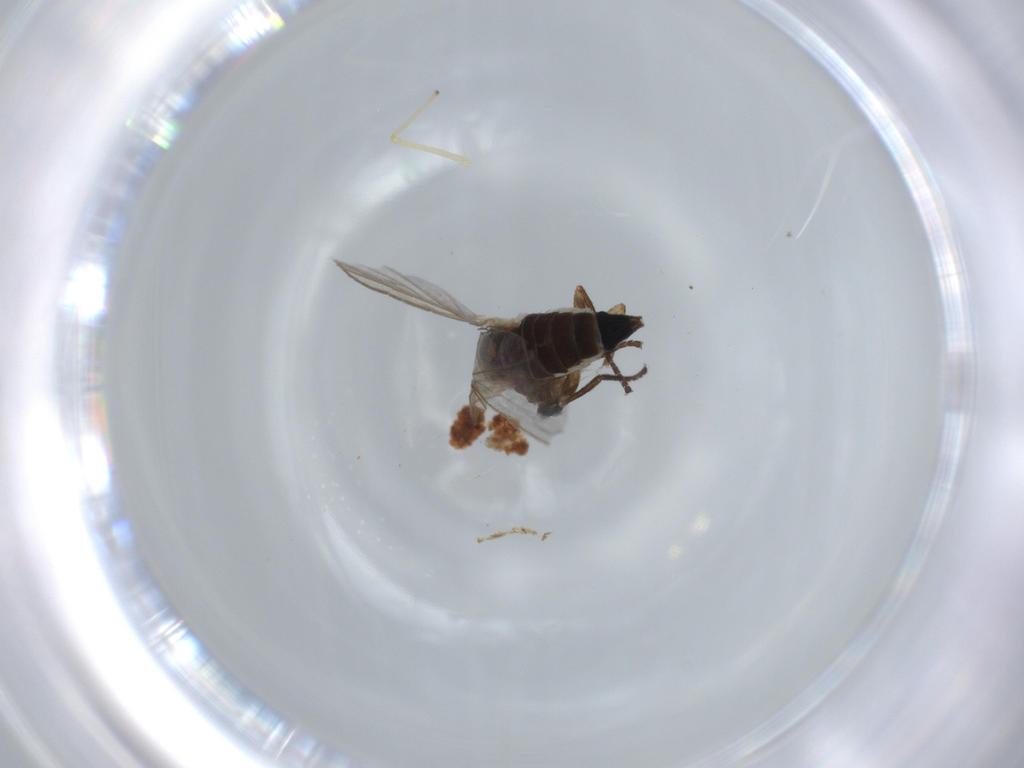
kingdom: Animalia
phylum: Arthropoda
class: Insecta
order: Diptera
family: Agromyzidae
